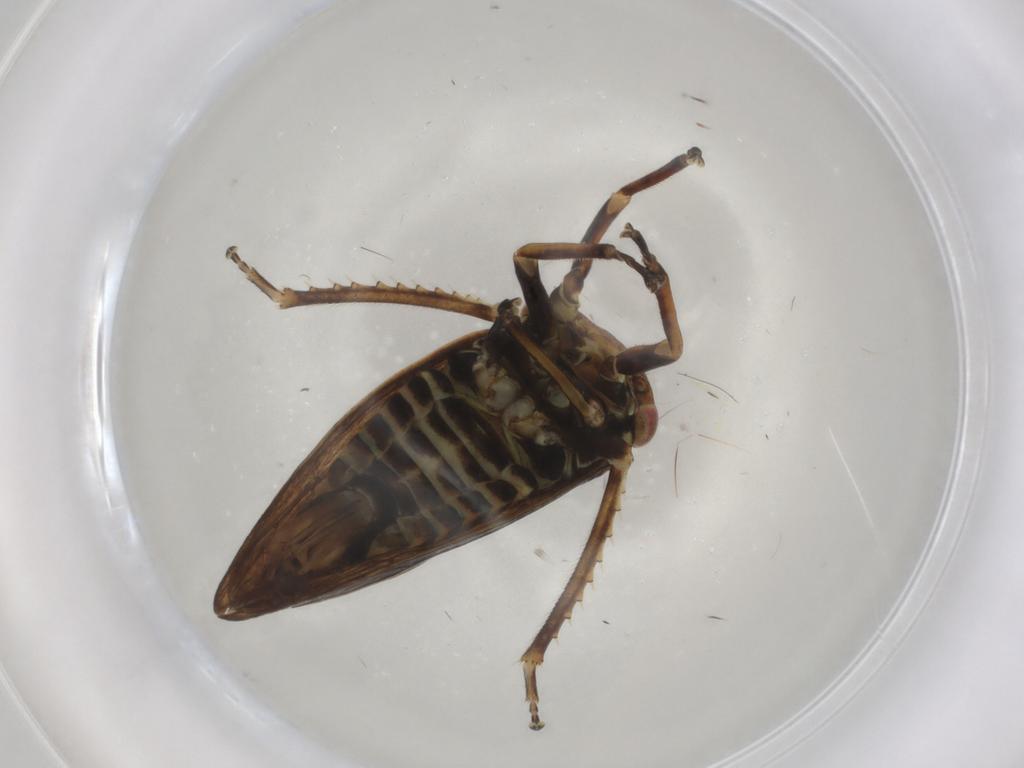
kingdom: Animalia
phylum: Arthropoda
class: Insecta
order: Hemiptera
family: Cicadellidae
